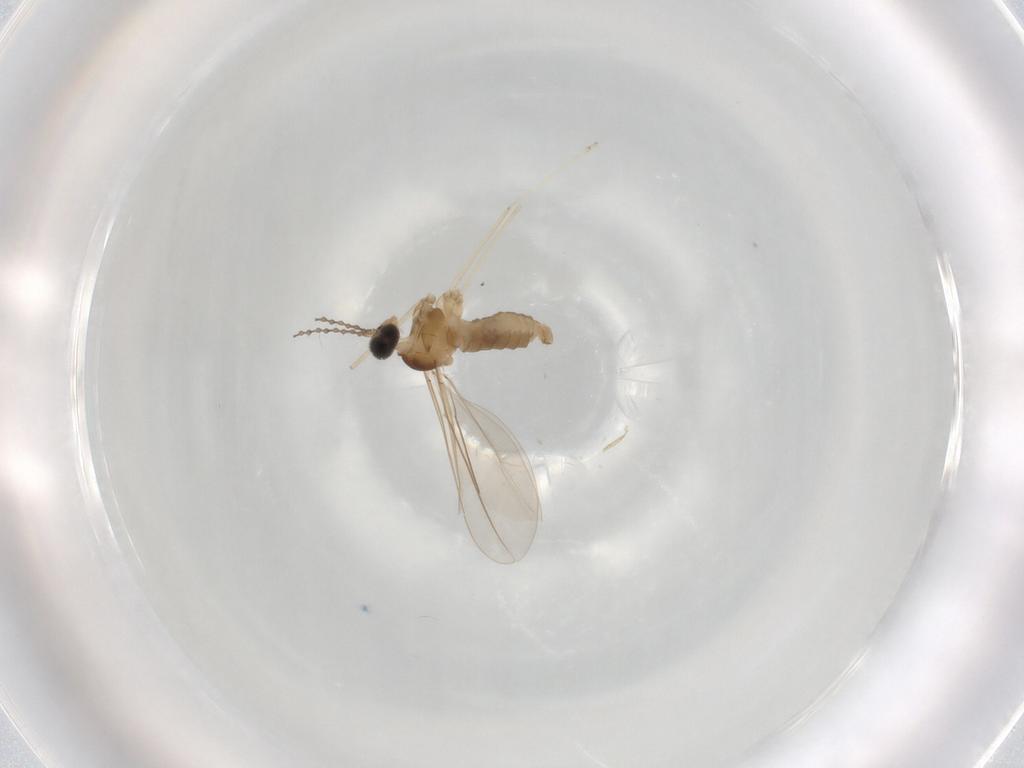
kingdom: Animalia
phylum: Arthropoda
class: Insecta
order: Diptera
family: Cecidomyiidae
